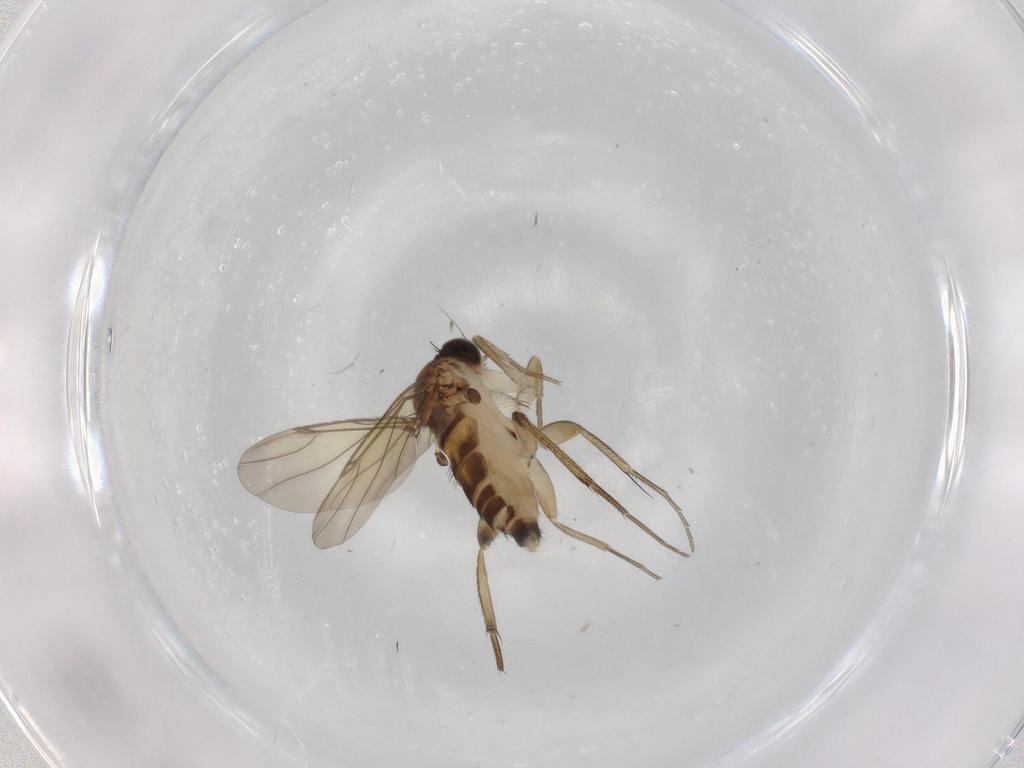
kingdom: Animalia
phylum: Arthropoda
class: Insecta
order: Diptera
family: Phoridae
